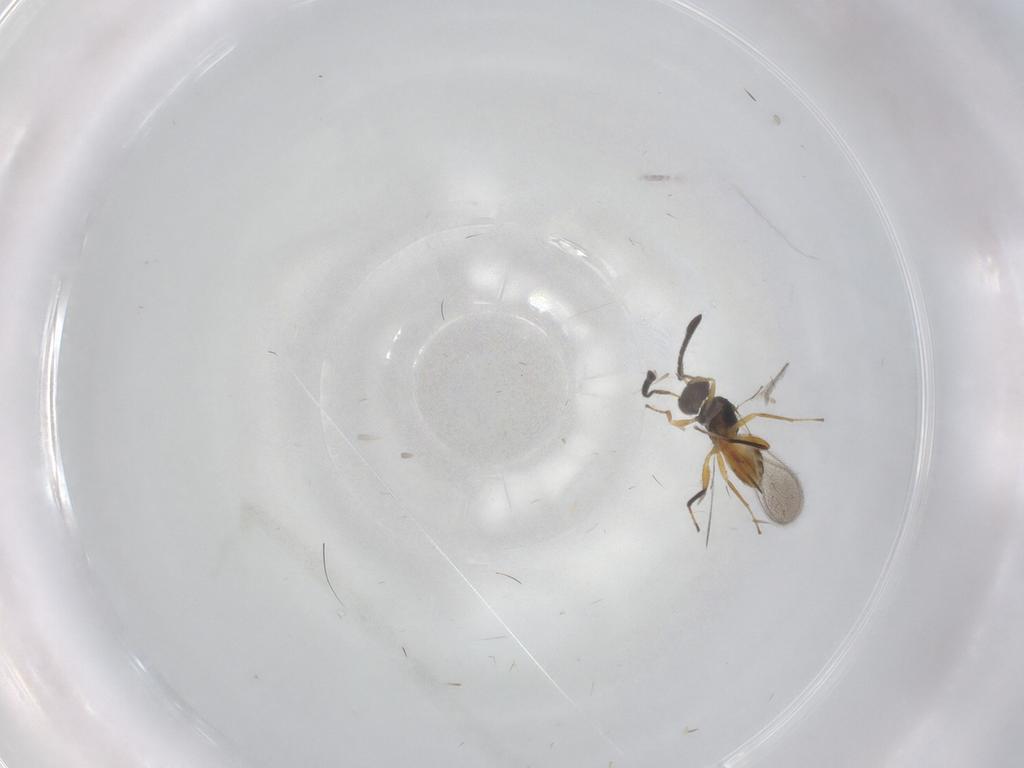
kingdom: Animalia
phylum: Arthropoda
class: Insecta
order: Hymenoptera
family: Mymaridae
